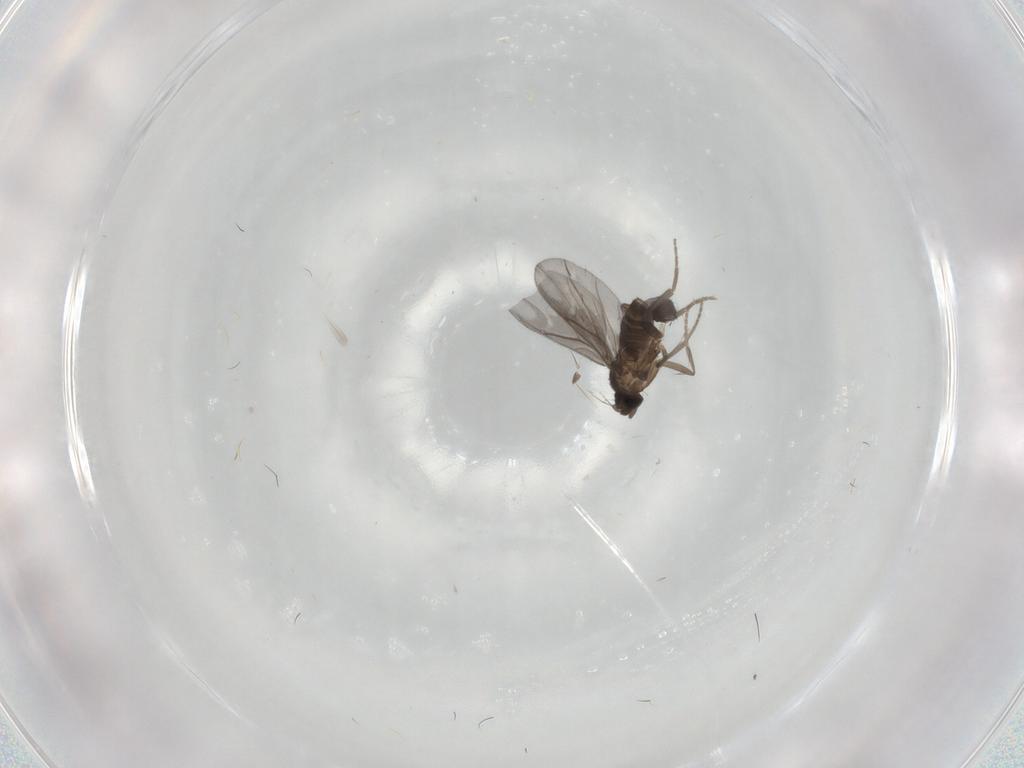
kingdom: Animalia
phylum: Arthropoda
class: Insecta
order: Diptera
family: Phoridae
